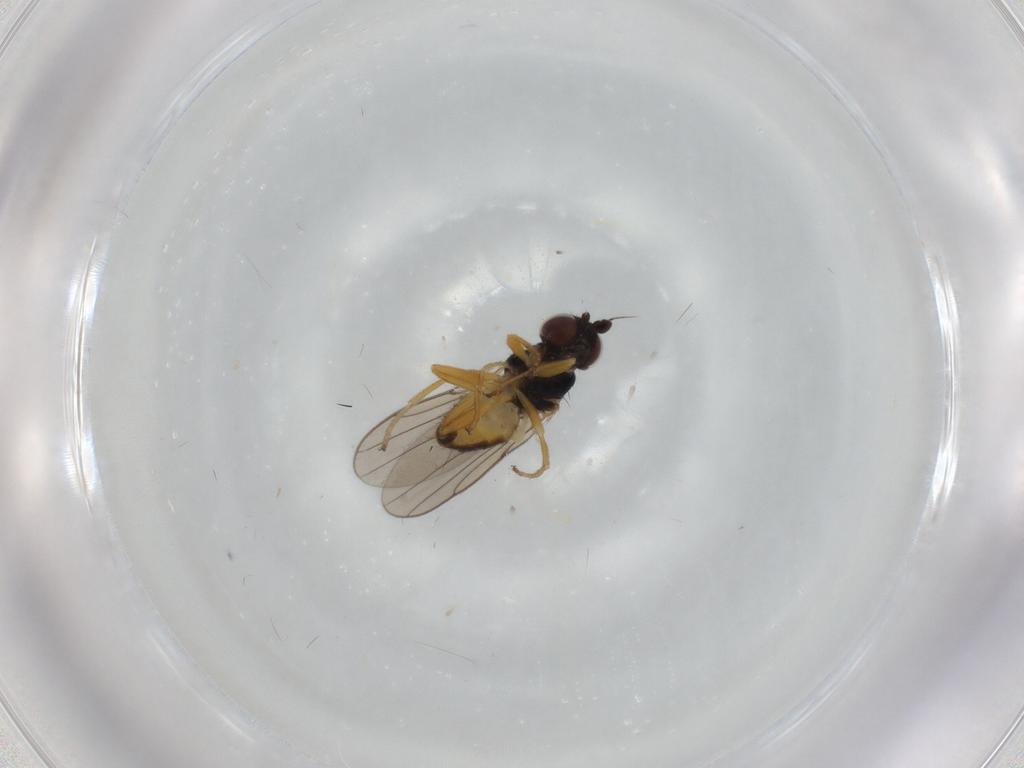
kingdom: Animalia
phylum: Arthropoda
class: Insecta
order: Diptera
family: Chloropidae
